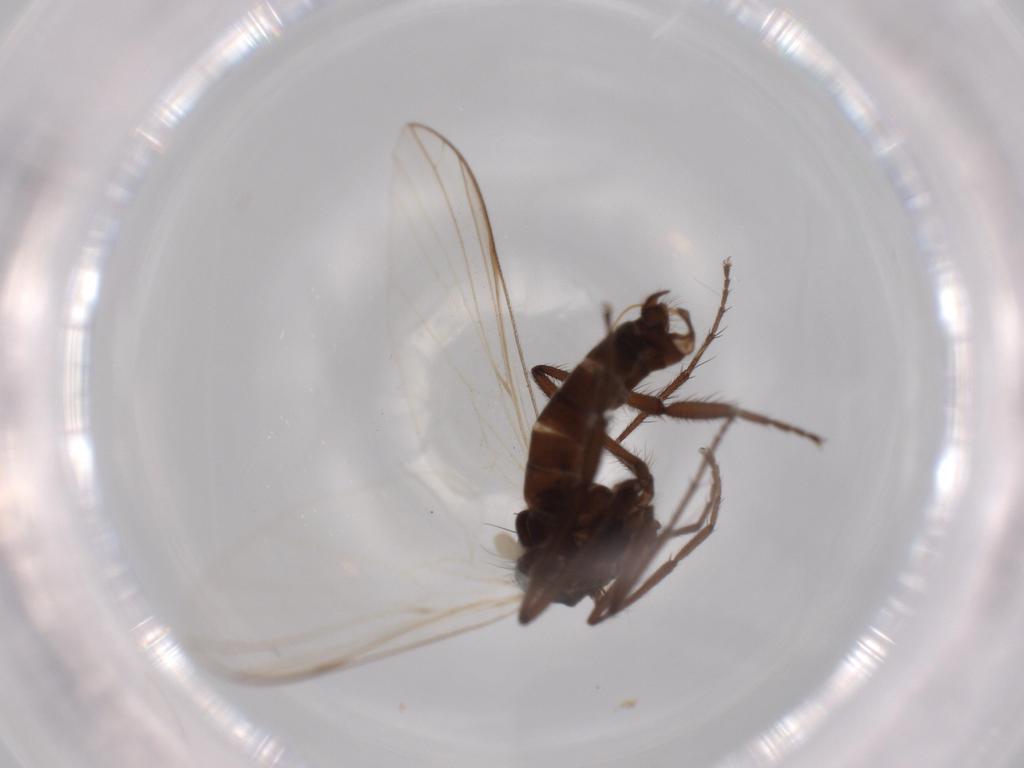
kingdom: Animalia
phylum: Arthropoda
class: Insecta
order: Diptera
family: Empididae
